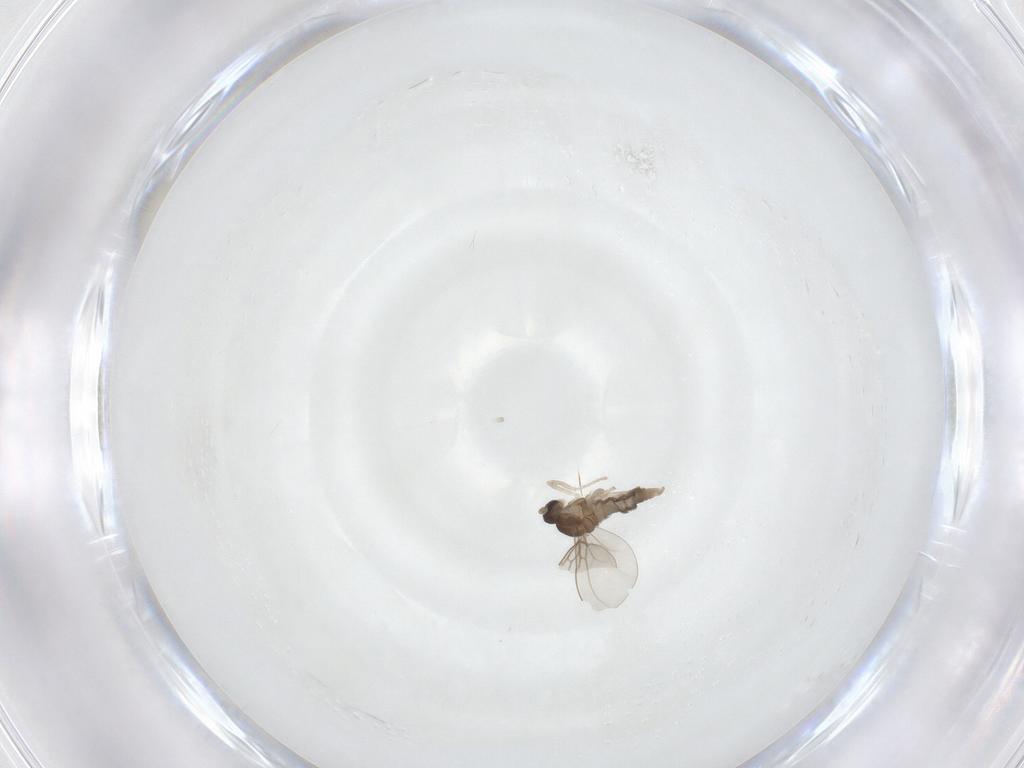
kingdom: Animalia
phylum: Arthropoda
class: Insecta
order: Diptera
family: Cecidomyiidae
